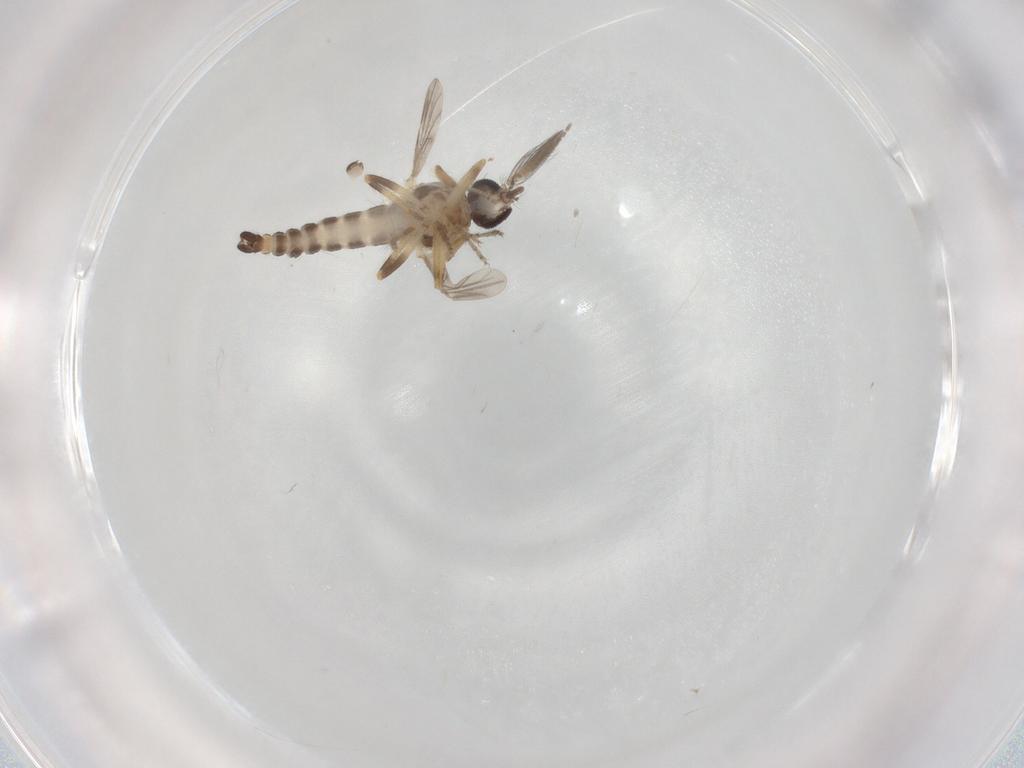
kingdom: Animalia
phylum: Arthropoda
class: Insecta
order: Diptera
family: Ceratopogonidae
